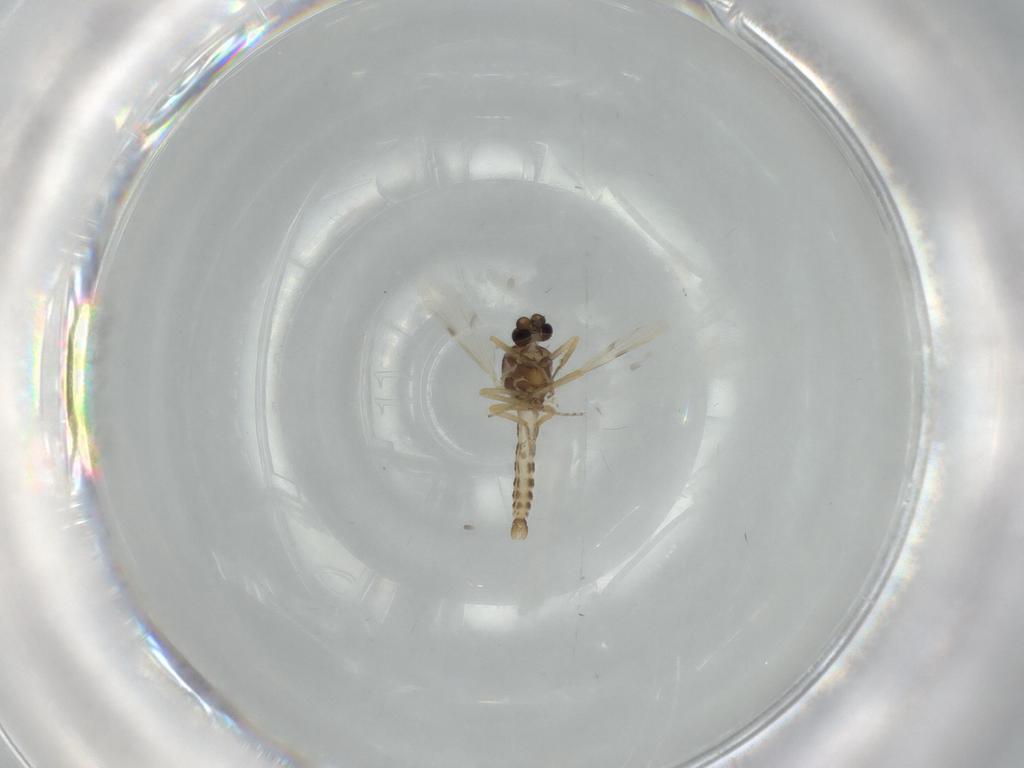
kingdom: Animalia
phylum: Arthropoda
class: Insecta
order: Diptera
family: Ceratopogonidae
